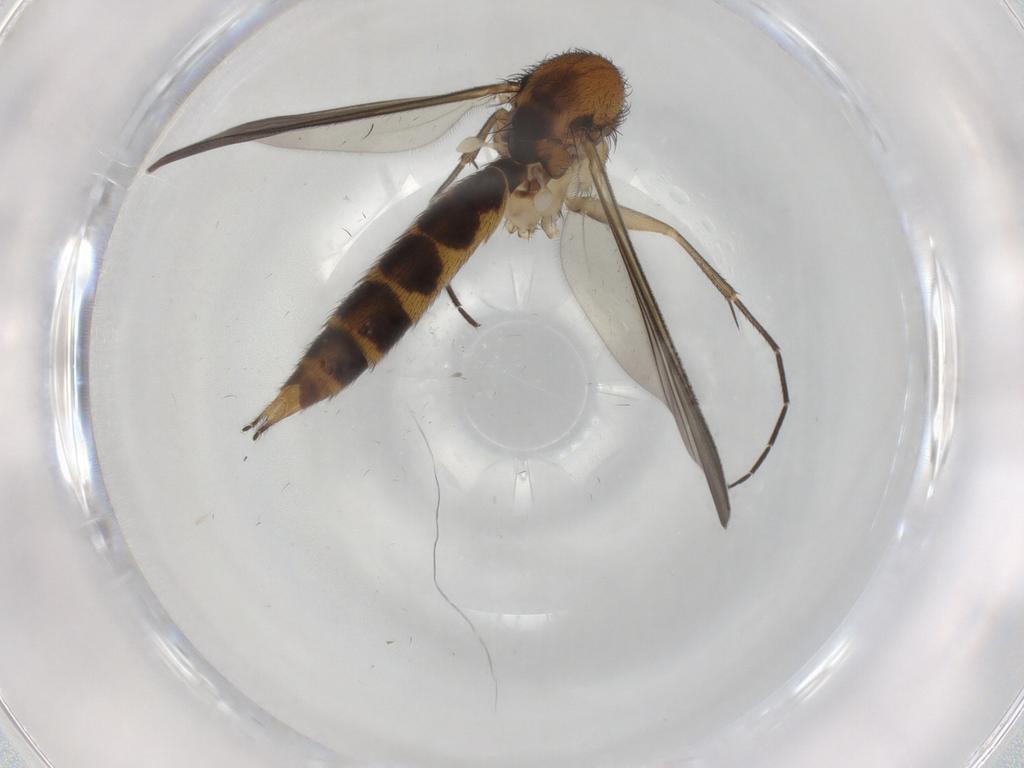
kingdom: Animalia
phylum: Arthropoda
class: Insecta
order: Diptera
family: Mycetophilidae
